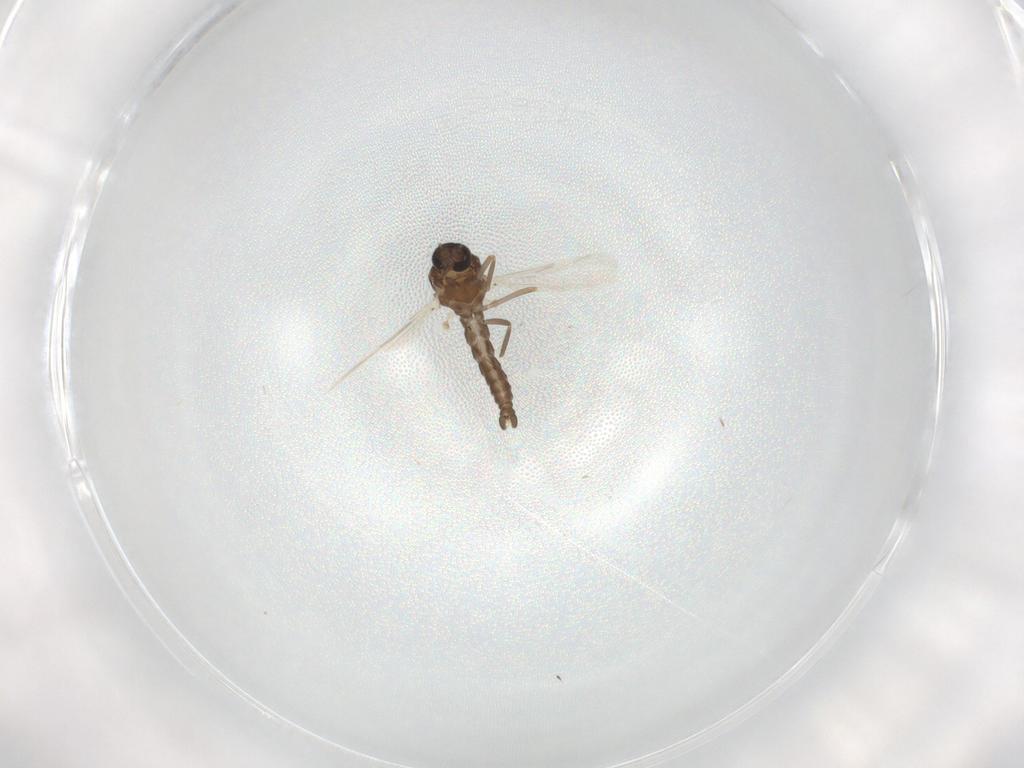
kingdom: Animalia
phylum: Arthropoda
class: Insecta
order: Diptera
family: Ceratopogonidae
